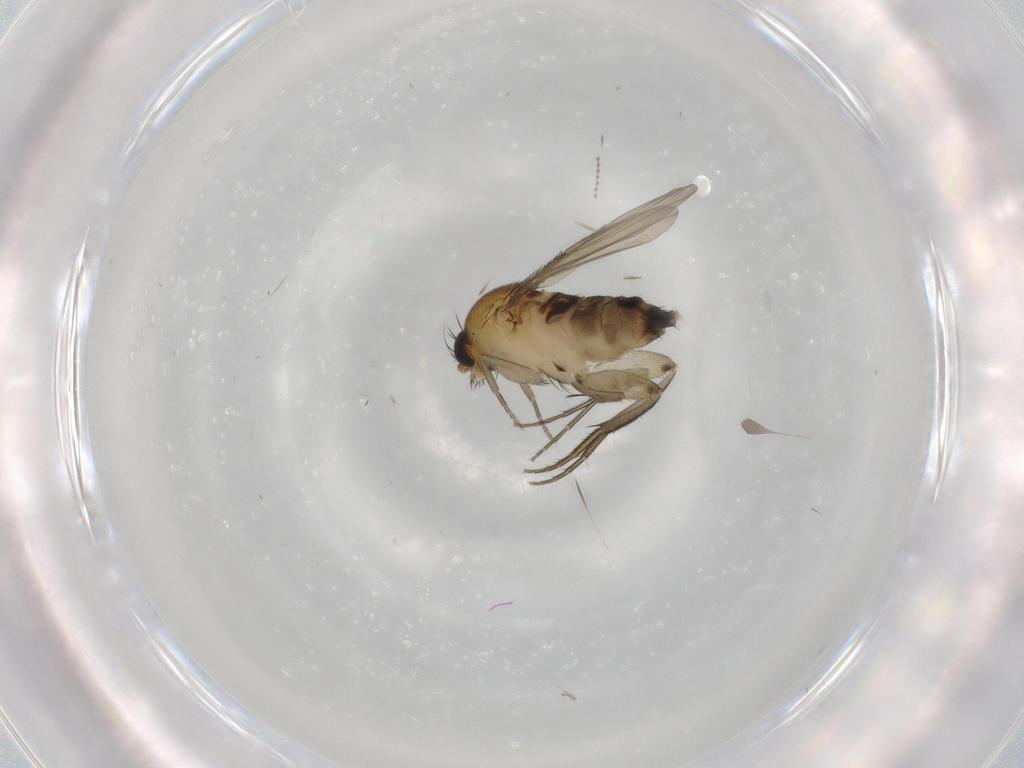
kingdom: Animalia
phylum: Arthropoda
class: Insecta
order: Diptera
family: Phoridae
